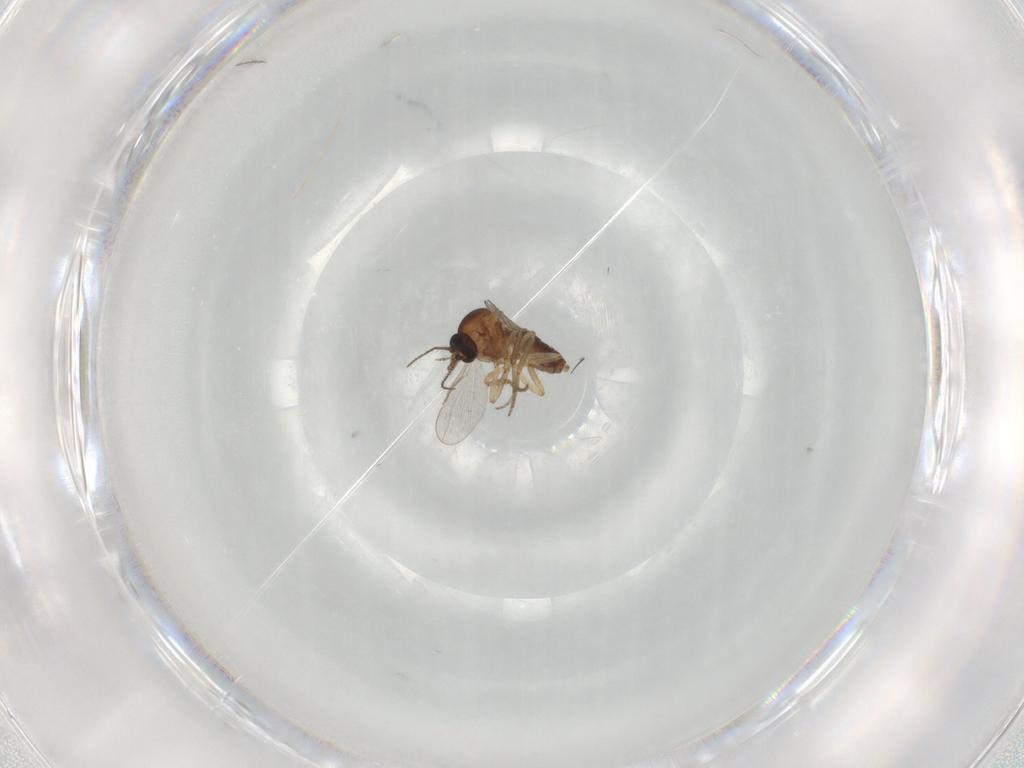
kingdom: Animalia
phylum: Arthropoda
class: Insecta
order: Diptera
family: Ceratopogonidae
